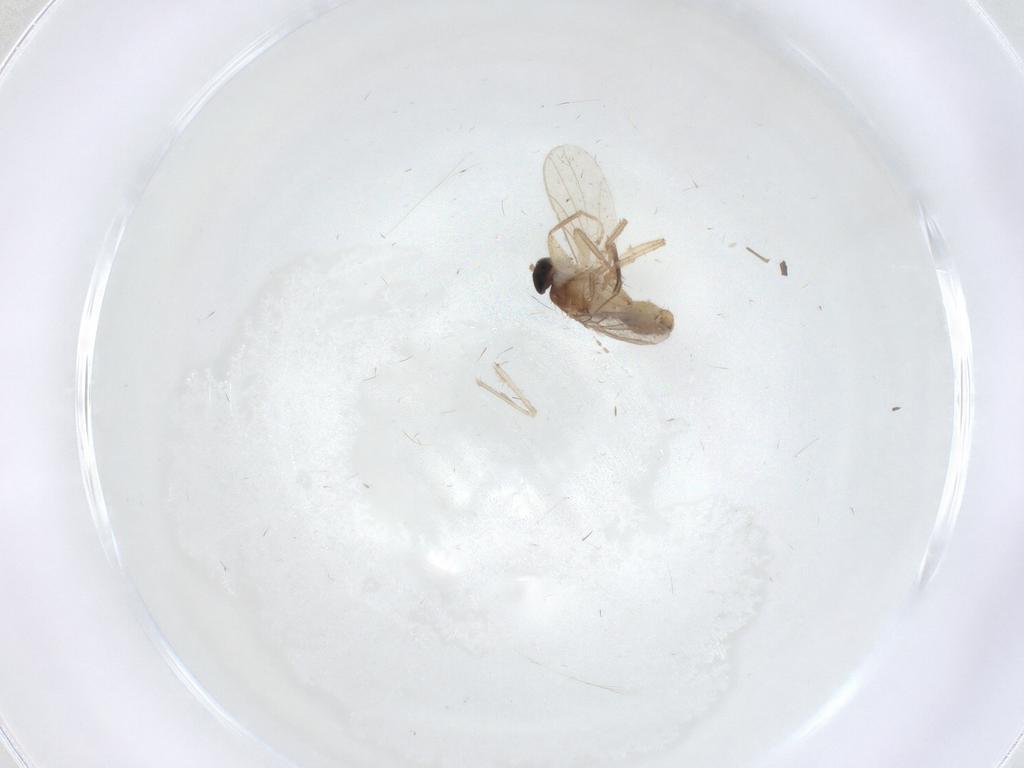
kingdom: Animalia
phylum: Arthropoda
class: Insecta
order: Diptera
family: Hybotidae
